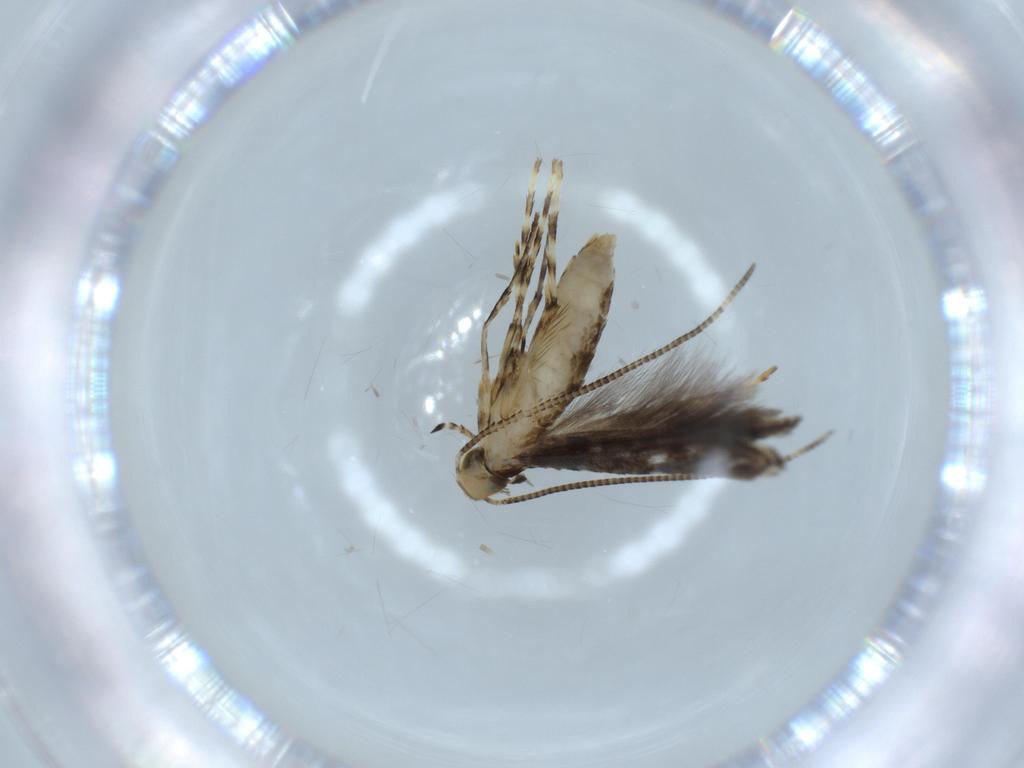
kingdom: Animalia
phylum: Arthropoda
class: Insecta
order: Lepidoptera
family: Gracillariidae
